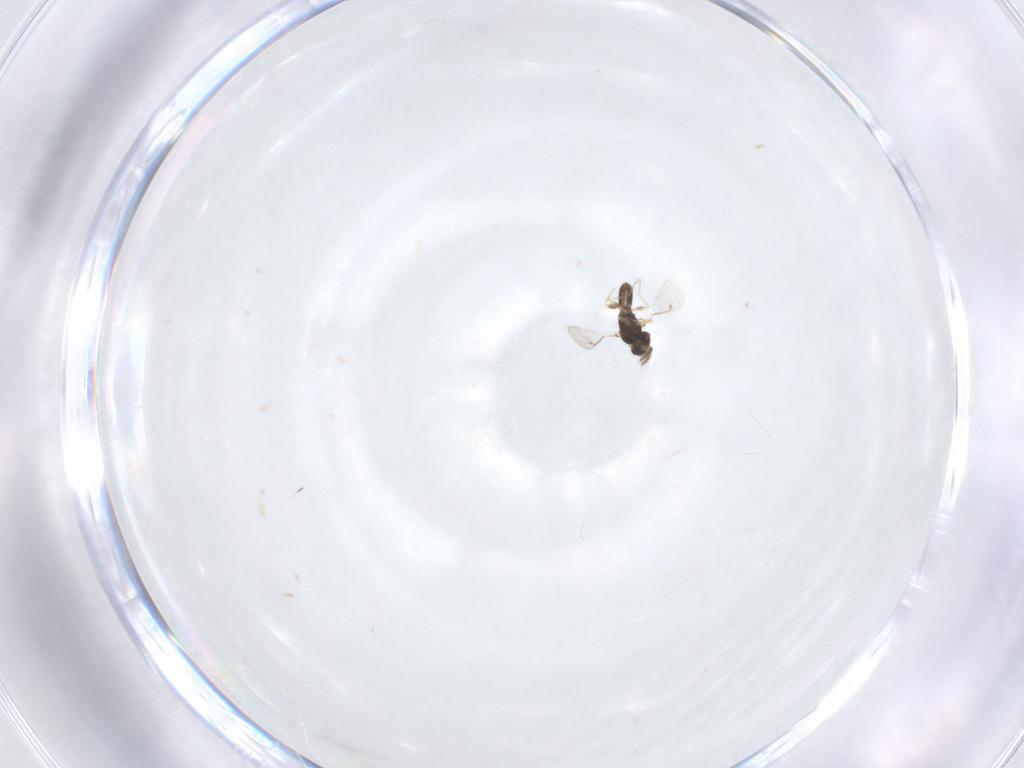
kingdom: Animalia
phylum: Arthropoda
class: Insecta
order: Hymenoptera
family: Eulophidae
